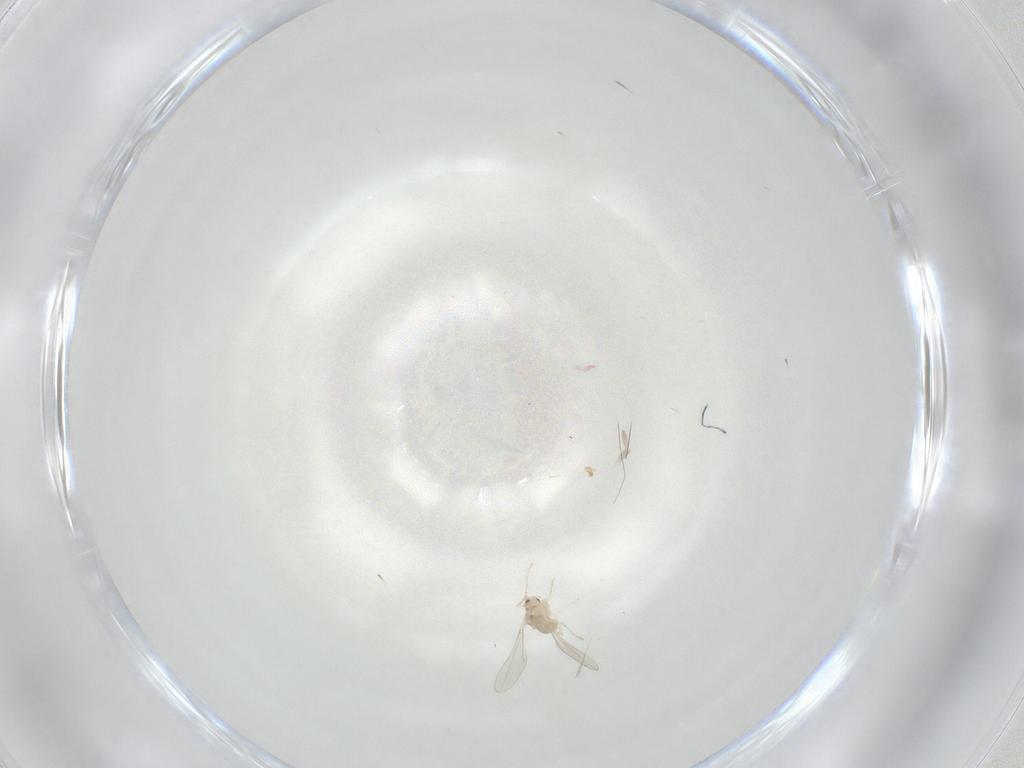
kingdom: Animalia
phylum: Arthropoda
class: Insecta
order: Diptera
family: Cecidomyiidae
